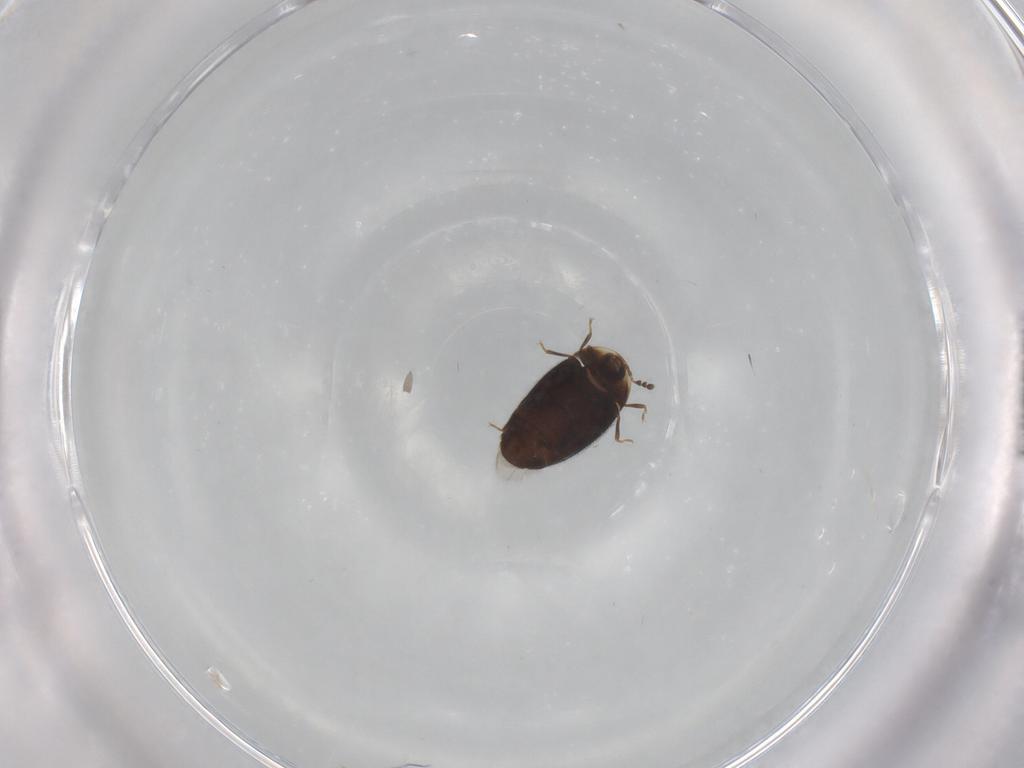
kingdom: Animalia
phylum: Arthropoda
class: Insecta
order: Coleoptera
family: Corylophidae
